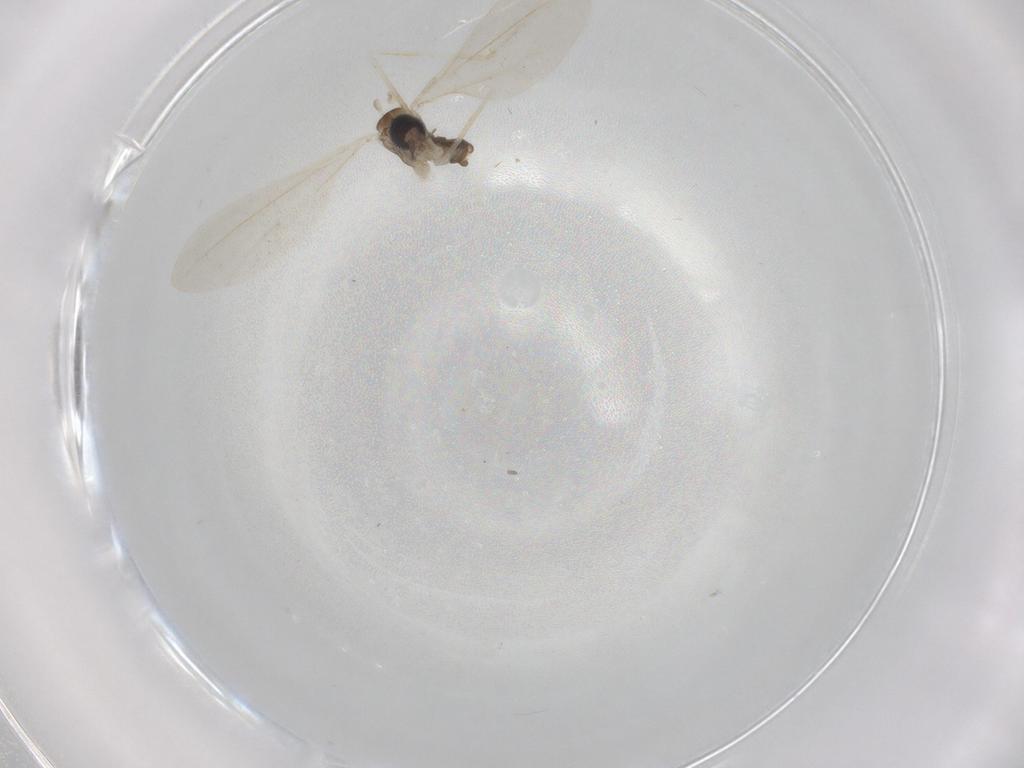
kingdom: Animalia
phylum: Arthropoda
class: Insecta
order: Diptera
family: Cecidomyiidae
